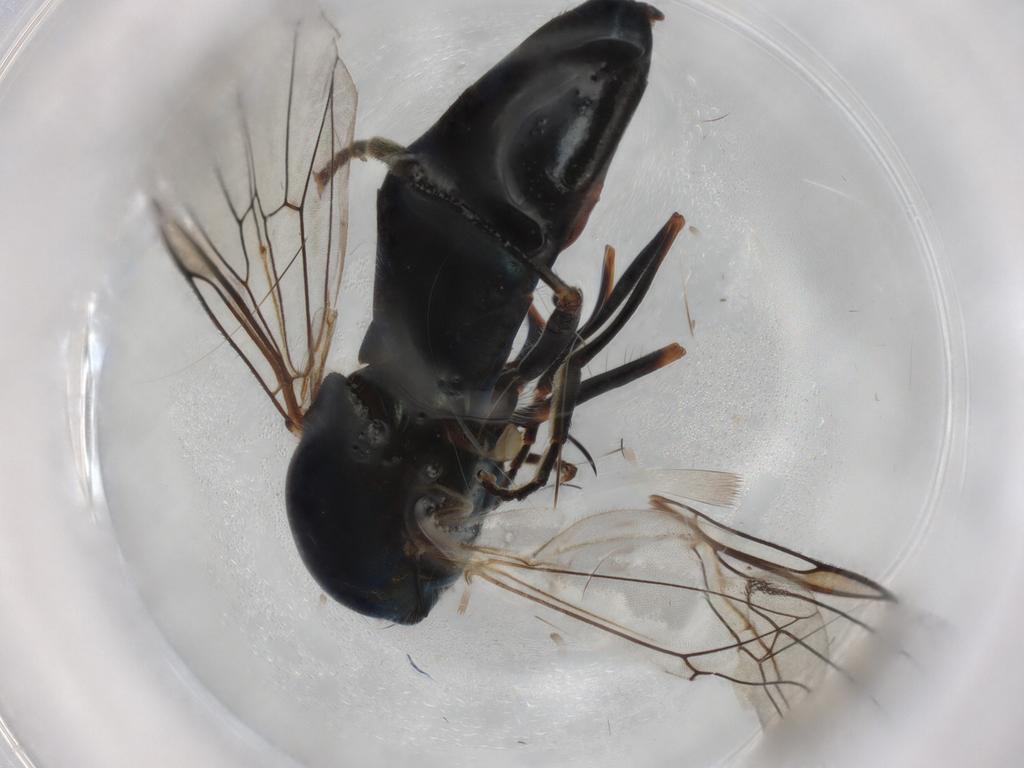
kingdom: Animalia
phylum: Arthropoda
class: Insecta
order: Diptera
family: Syrphidae
